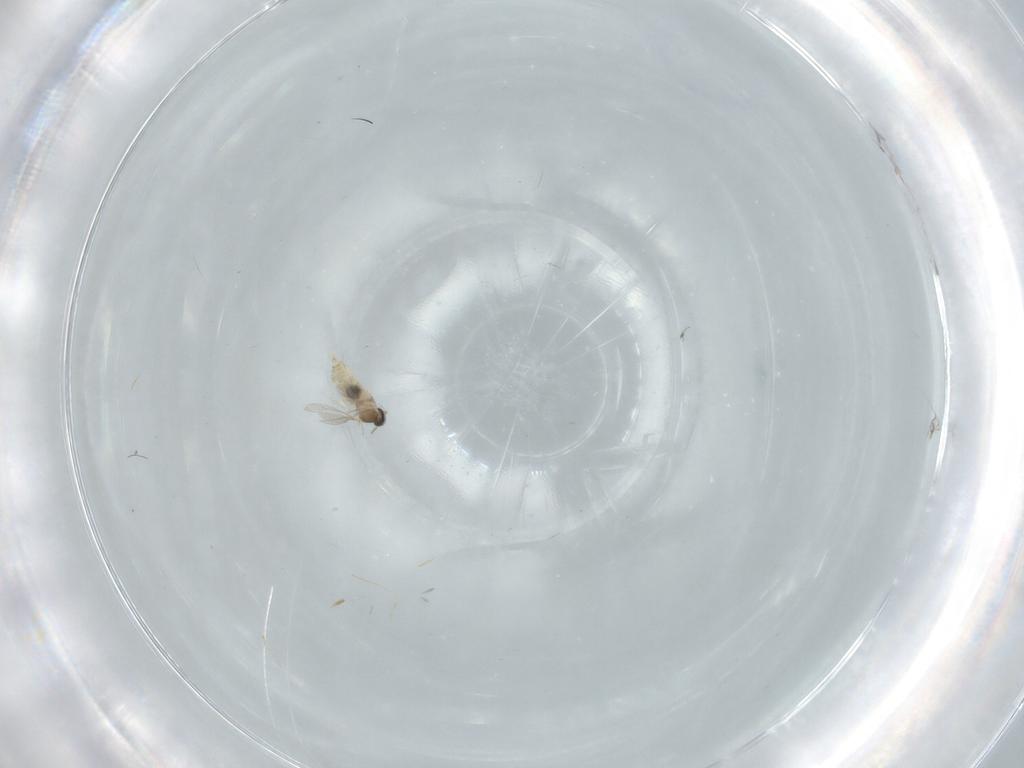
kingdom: Animalia
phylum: Arthropoda
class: Insecta
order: Diptera
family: Cecidomyiidae
